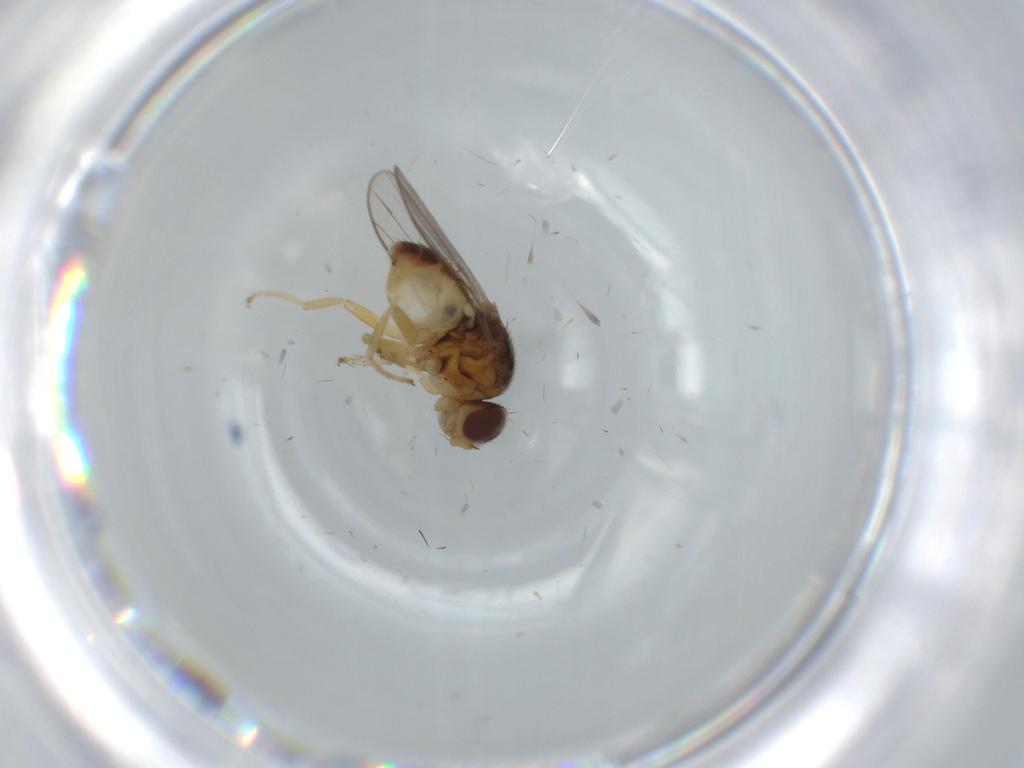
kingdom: Animalia
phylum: Arthropoda
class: Insecta
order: Diptera
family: Chloropidae
